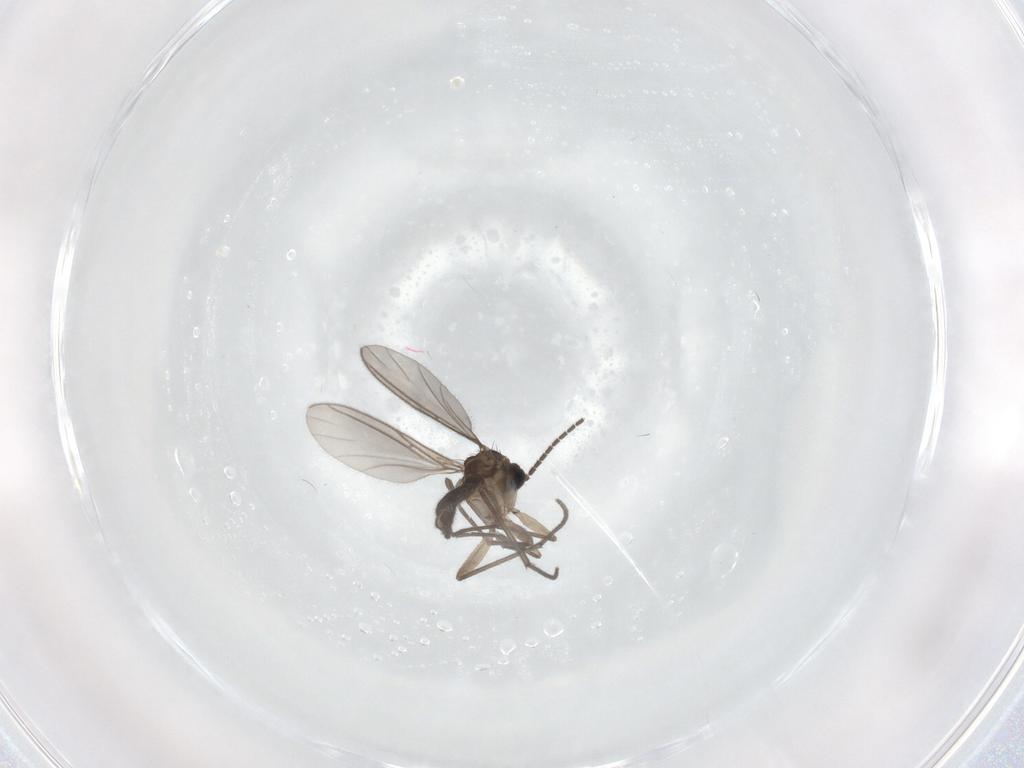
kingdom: Animalia
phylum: Arthropoda
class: Insecta
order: Diptera
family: Sciaridae
